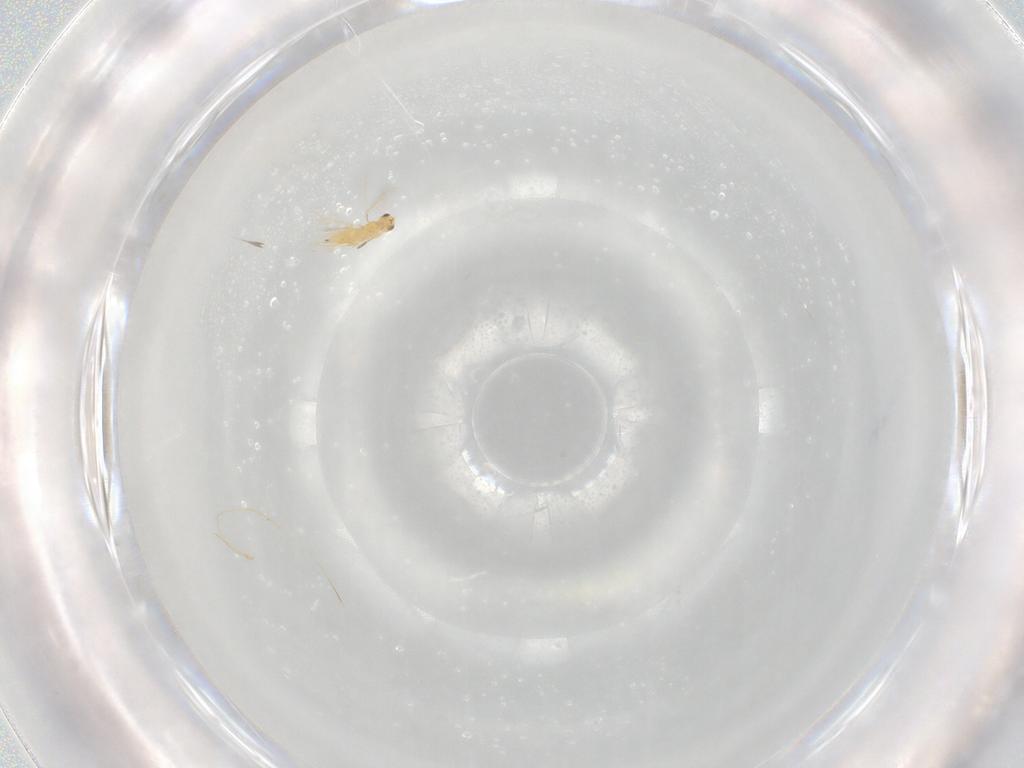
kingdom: Animalia
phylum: Arthropoda
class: Insecta
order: Hymenoptera
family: Mymaridae
